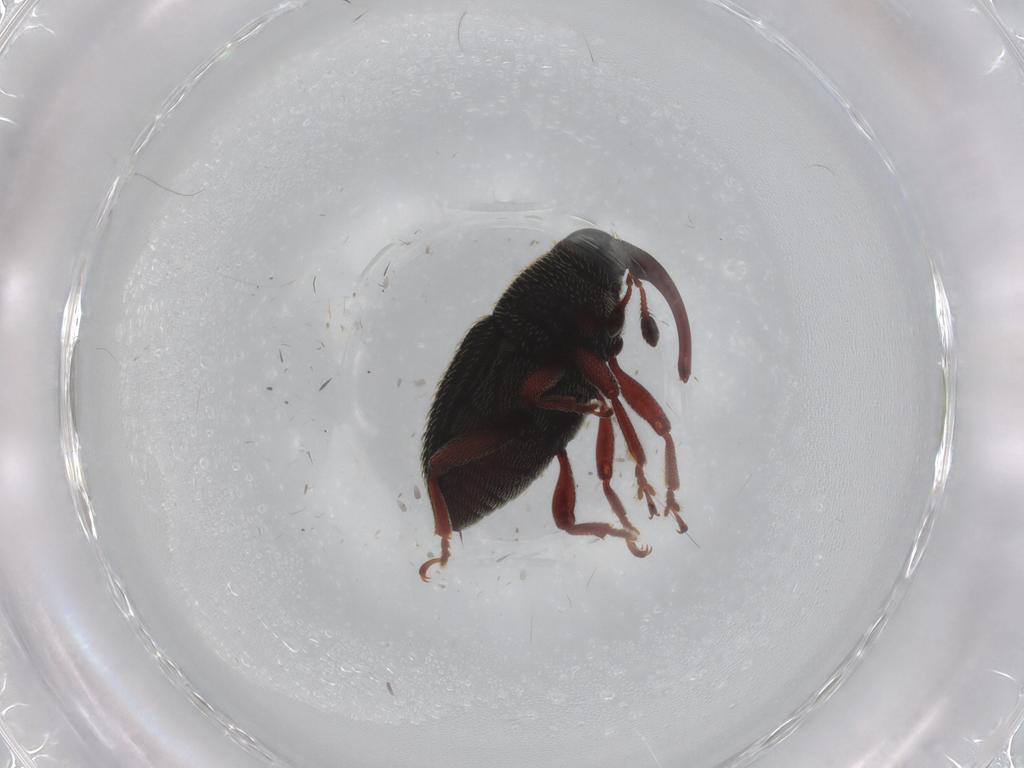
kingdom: Animalia
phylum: Arthropoda
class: Insecta
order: Coleoptera
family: Curculionidae
